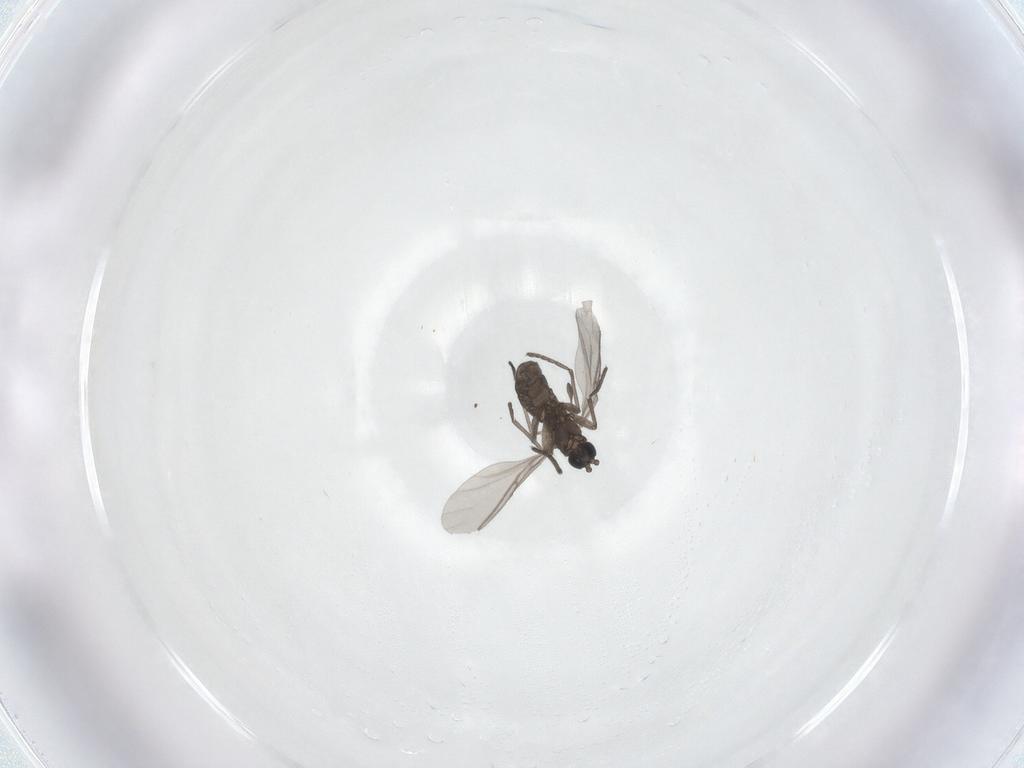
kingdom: Animalia
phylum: Arthropoda
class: Insecta
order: Diptera
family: Sciaridae
